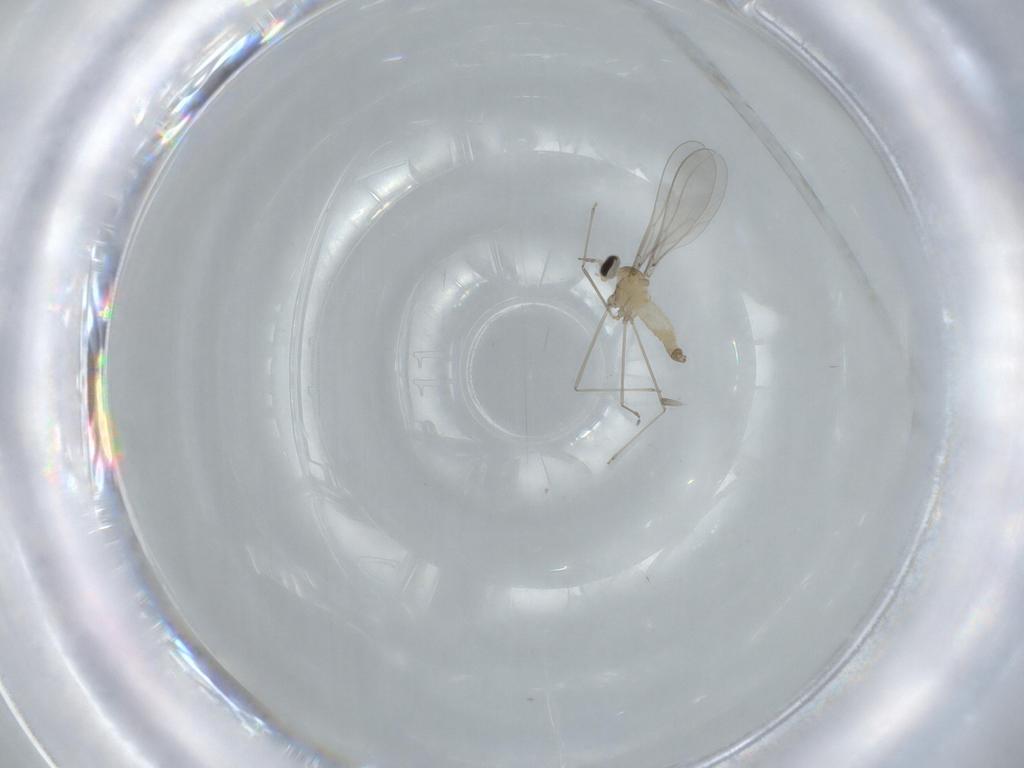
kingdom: Animalia
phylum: Arthropoda
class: Insecta
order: Diptera
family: Cecidomyiidae
